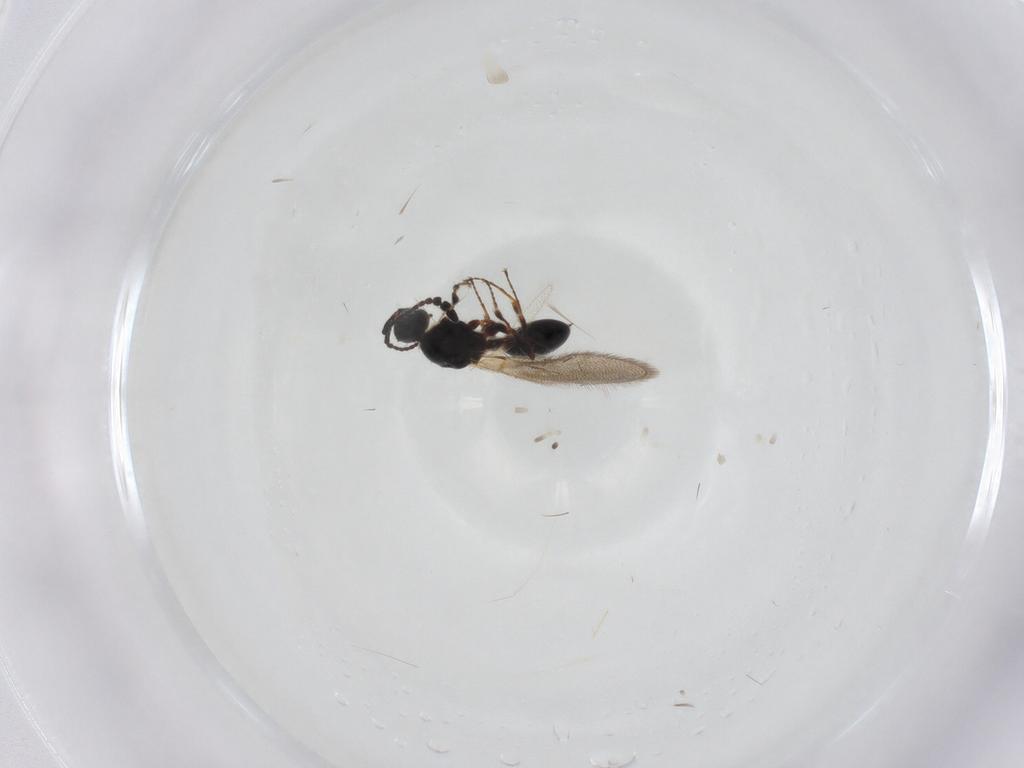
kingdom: Animalia
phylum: Arthropoda
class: Insecta
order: Hymenoptera
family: Diapriidae
